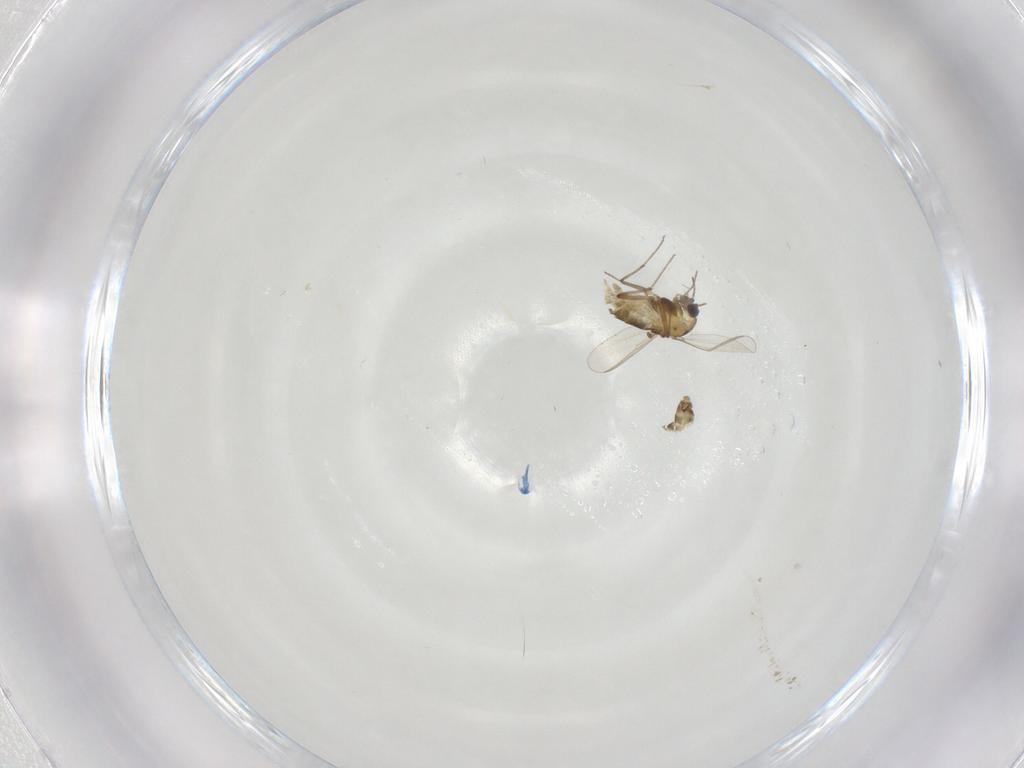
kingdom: Animalia
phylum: Arthropoda
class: Insecta
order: Diptera
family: Chironomidae
